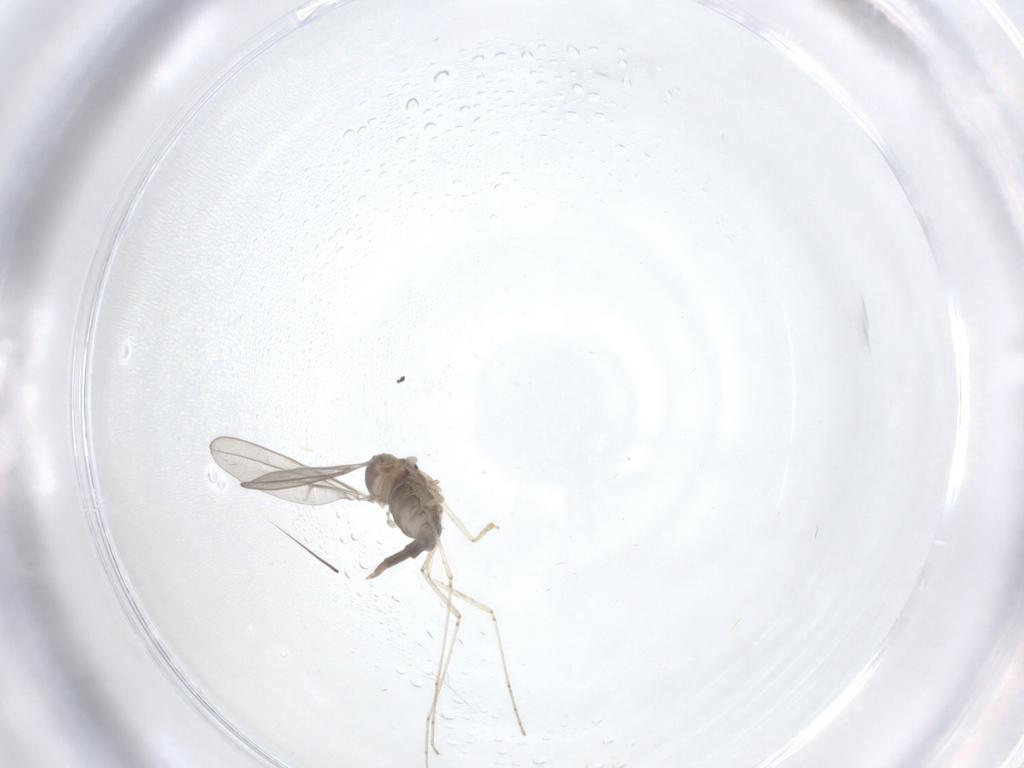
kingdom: Animalia
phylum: Arthropoda
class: Insecta
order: Diptera
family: Cecidomyiidae
